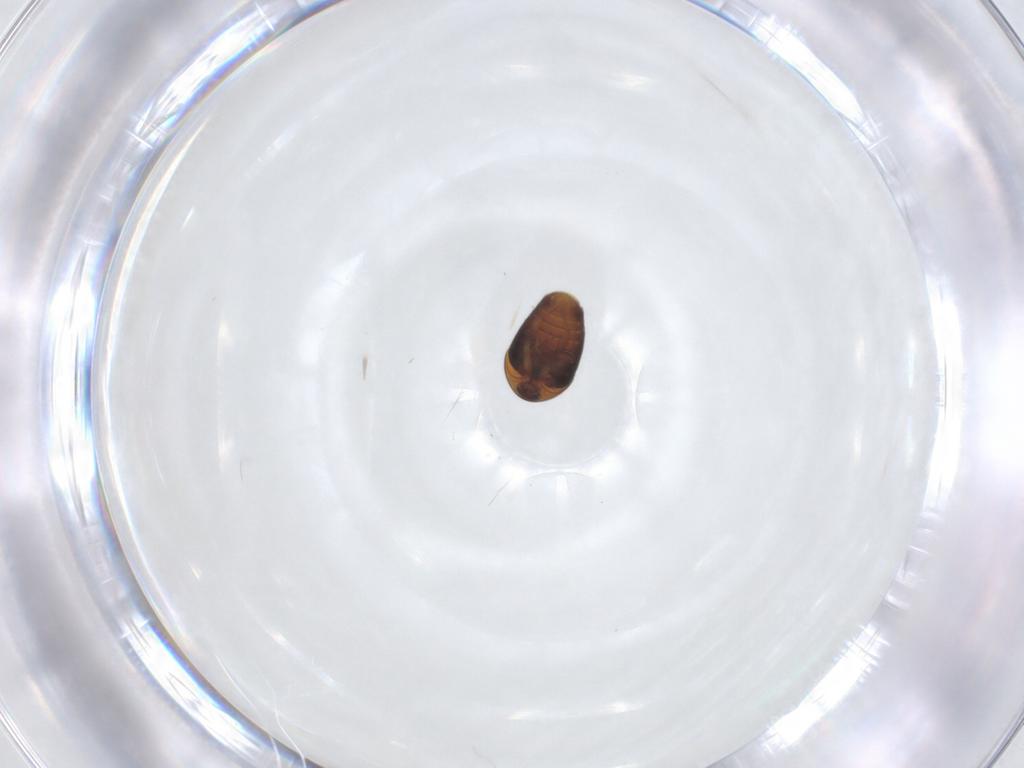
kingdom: Animalia
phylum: Arthropoda
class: Insecta
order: Coleoptera
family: Corylophidae
